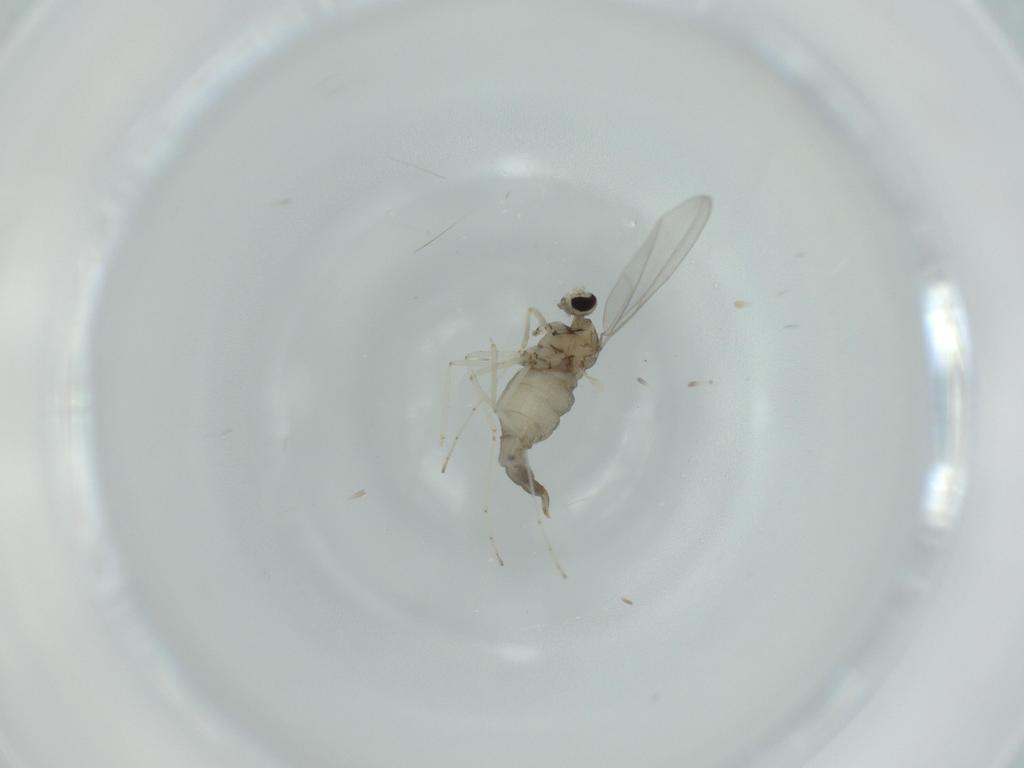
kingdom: Animalia
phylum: Arthropoda
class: Insecta
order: Diptera
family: Cecidomyiidae
